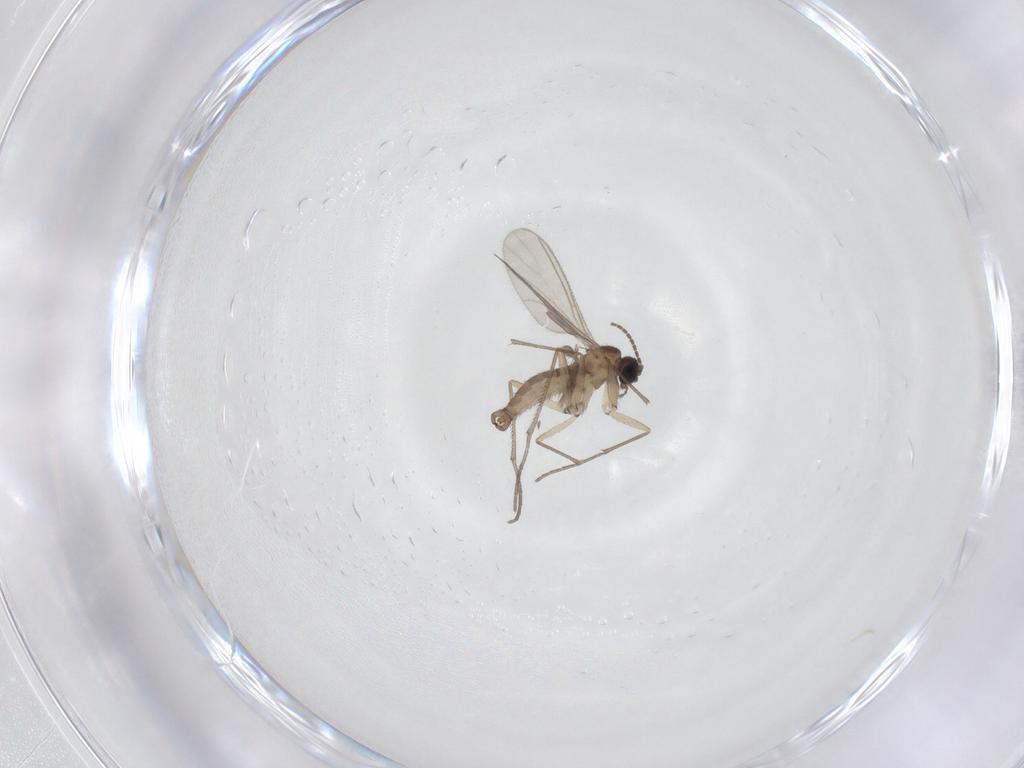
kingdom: Animalia
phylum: Arthropoda
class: Insecta
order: Diptera
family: Sciaridae
